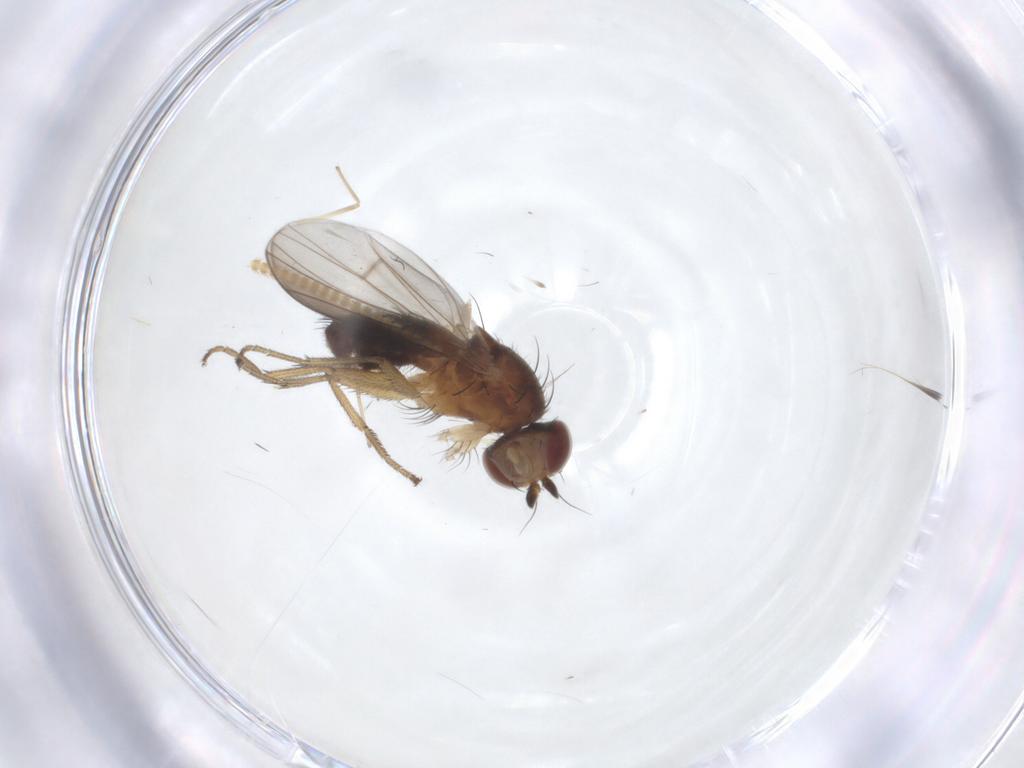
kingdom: Animalia
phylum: Arthropoda
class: Insecta
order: Diptera
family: Heleomyzidae
